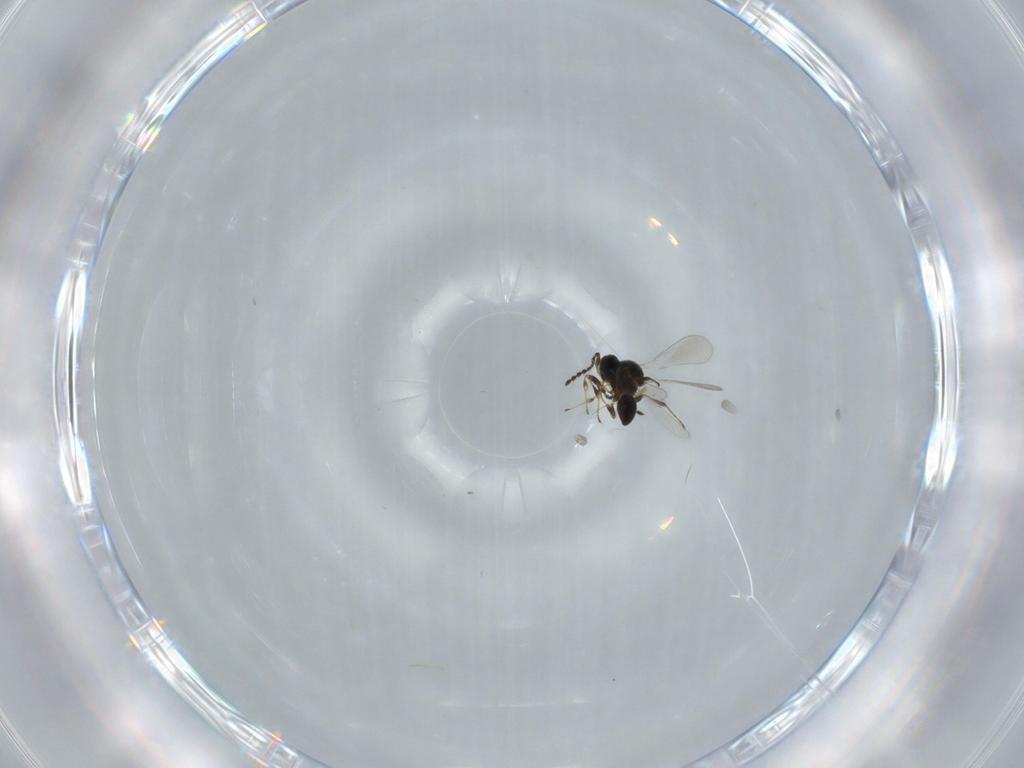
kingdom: Animalia
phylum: Arthropoda
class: Insecta
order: Hymenoptera
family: Platygastridae
